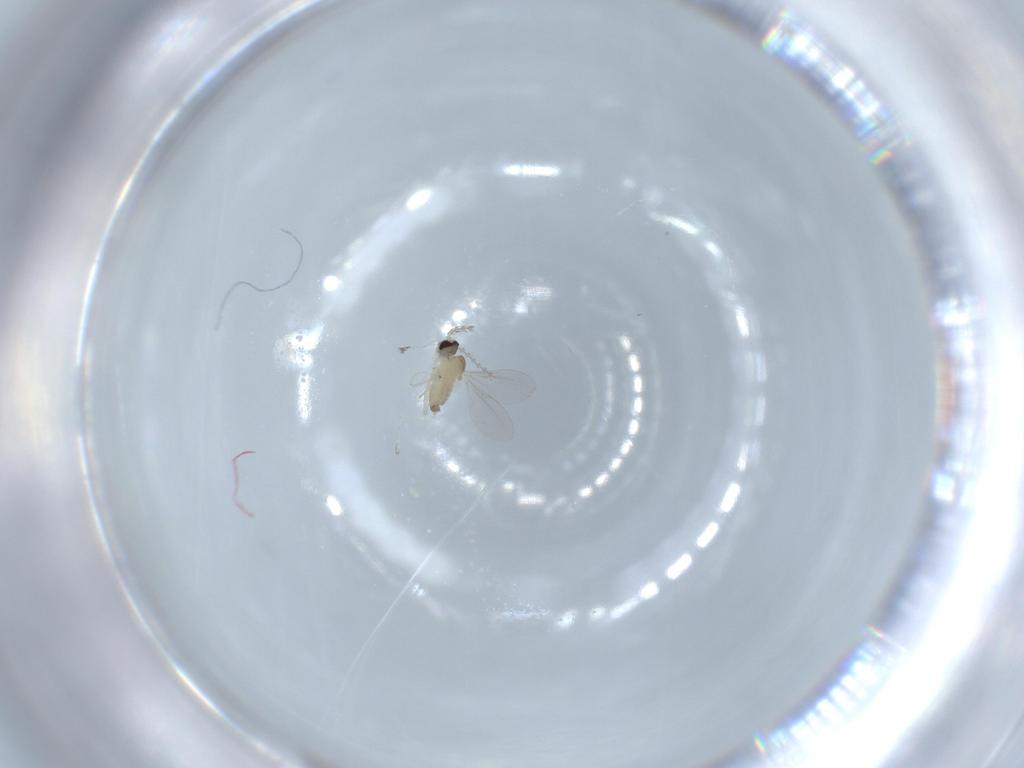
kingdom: Animalia
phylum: Arthropoda
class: Insecta
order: Diptera
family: Cecidomyiidae
